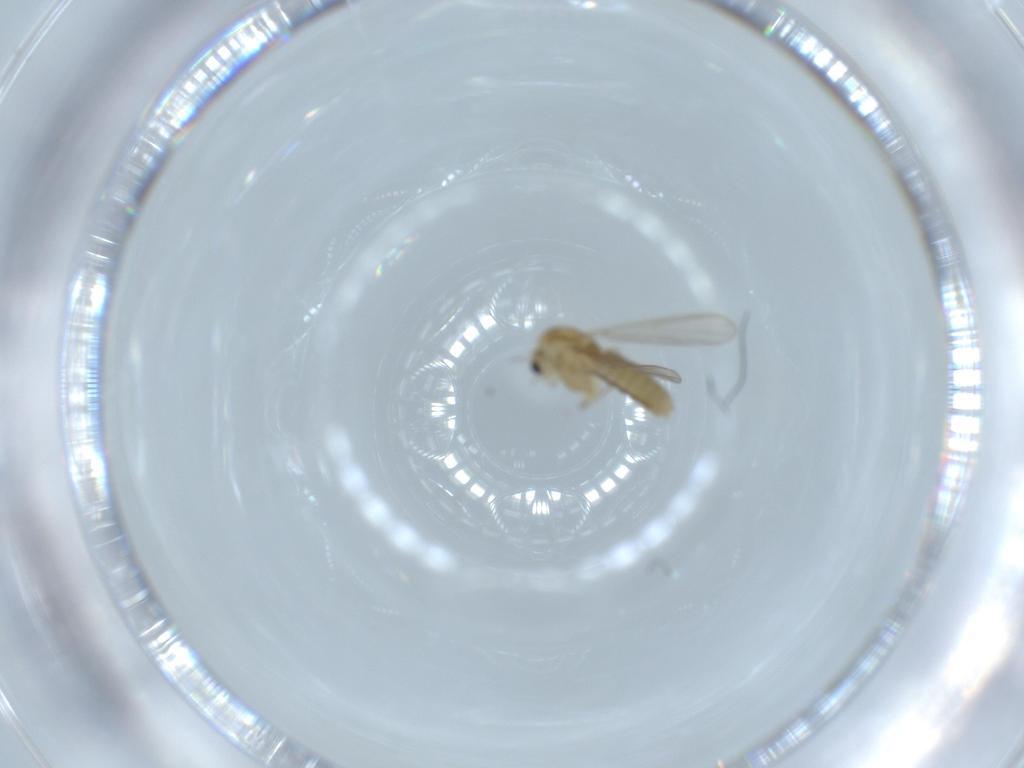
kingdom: Animalia
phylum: Arthropoda
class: Insecta
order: Diptera
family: Chironomidae
